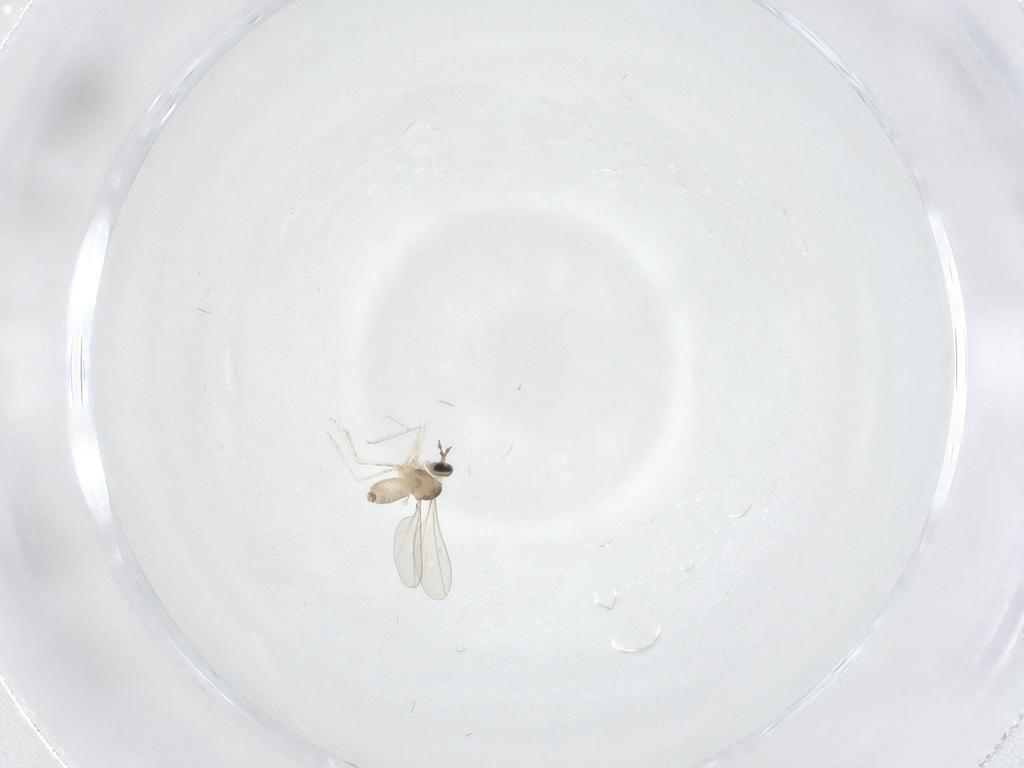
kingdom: Animalia
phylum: Arthropoda
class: Insecta
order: Diptera
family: Cecidomyiidae
